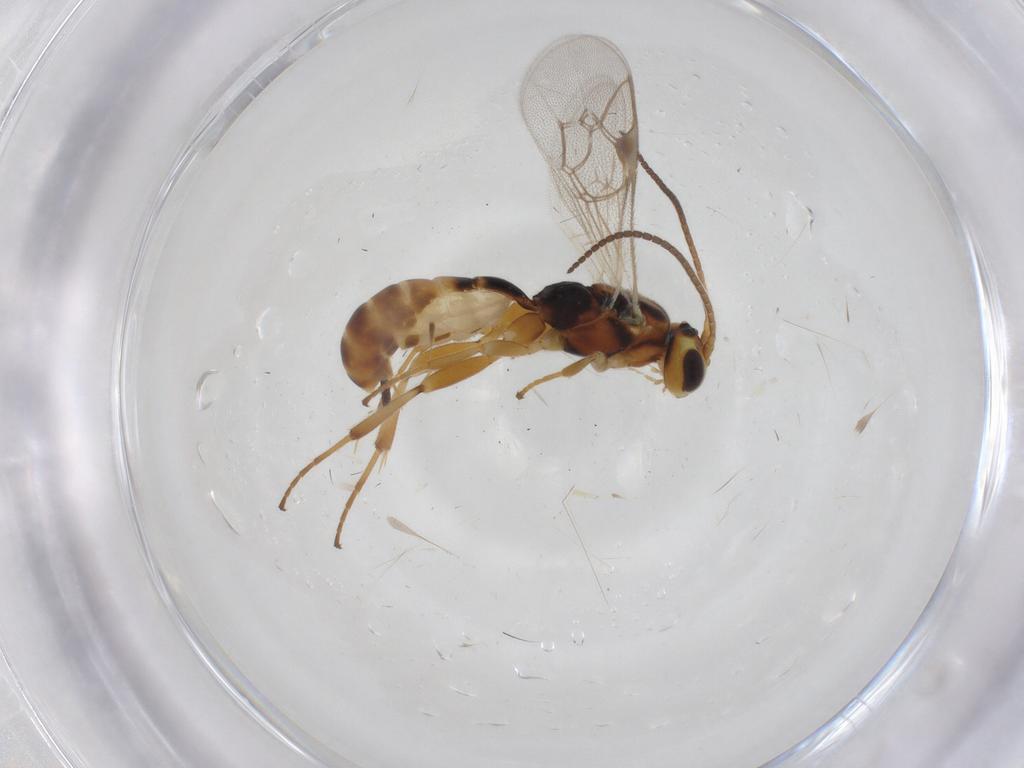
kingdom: Animalia
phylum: Arthropoda
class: Insecta
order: Hymenoptera
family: Ichneumonidae
